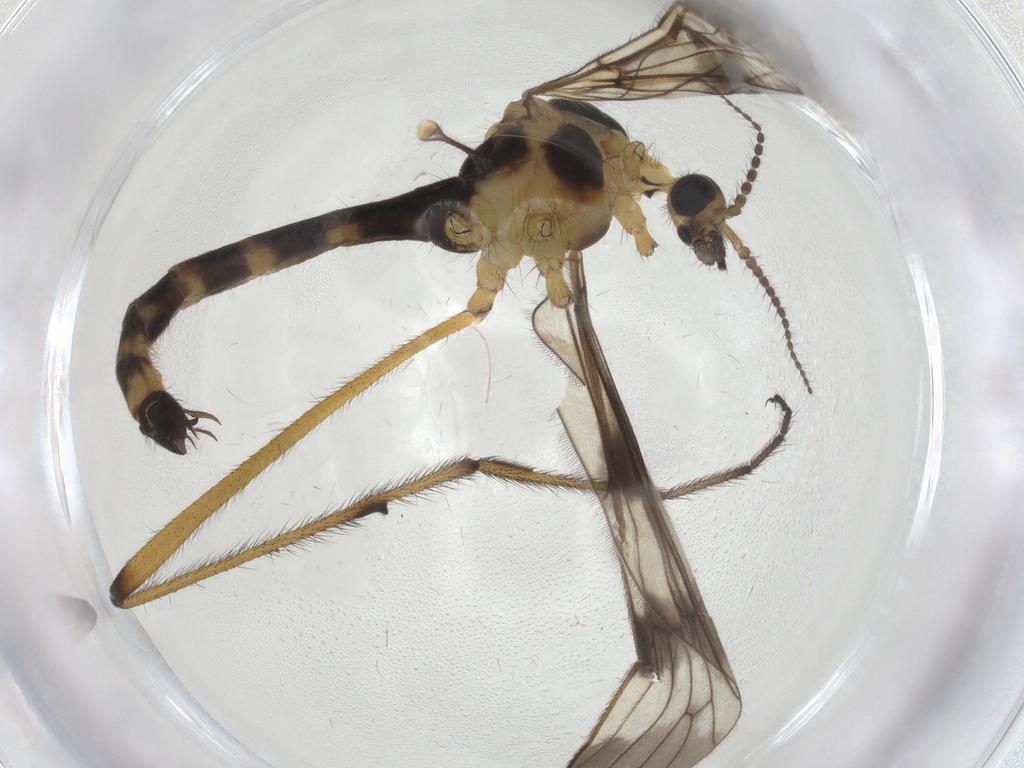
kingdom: Animalia
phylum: Arthropoda
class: Insecta
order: Diptera
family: Limoniidae
